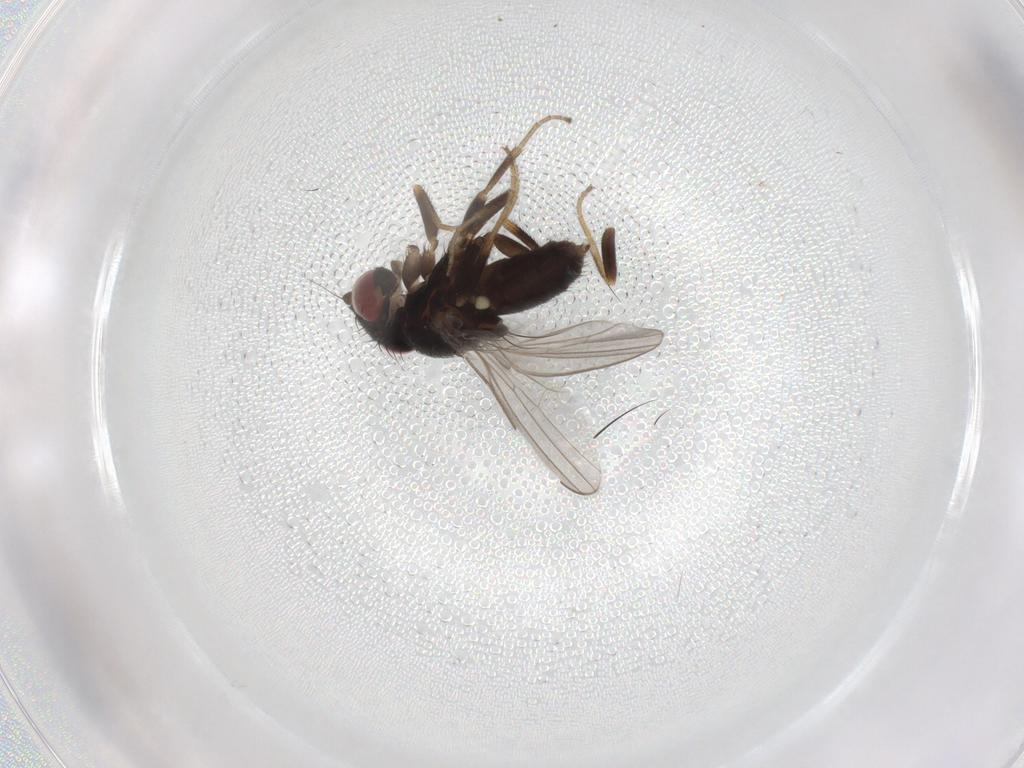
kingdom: Animalia
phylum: Arthropoda
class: Insecta
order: Diptera
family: Milichiidae
